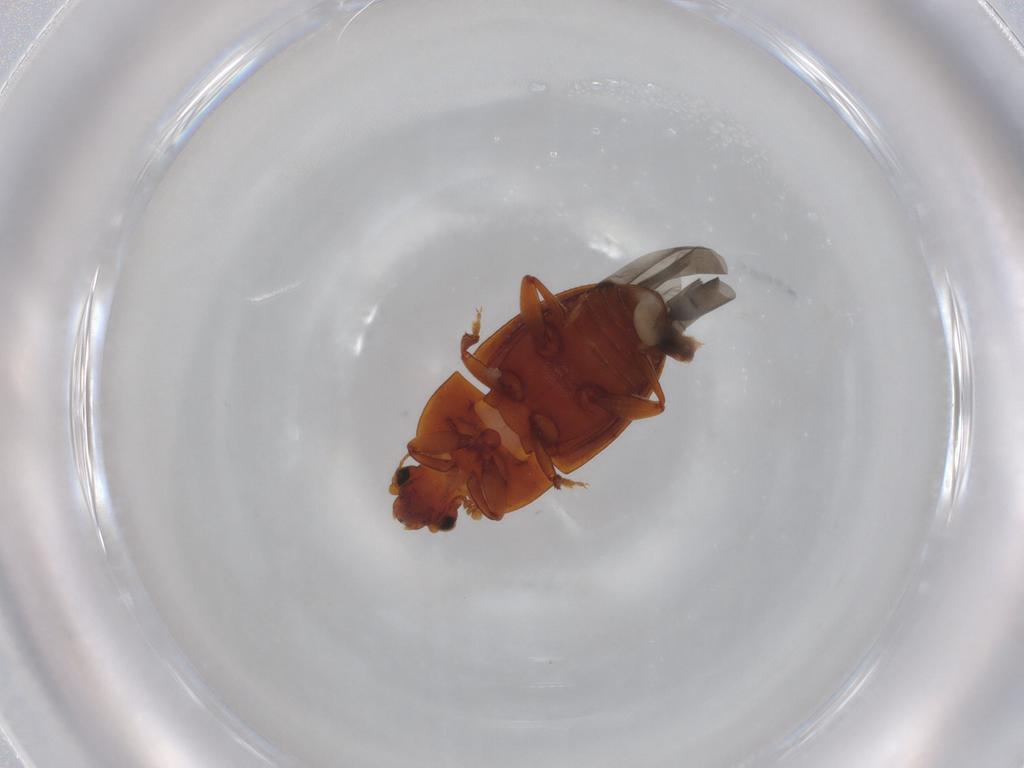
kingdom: Animalia
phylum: Arthropoda
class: Insecta
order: Coleoptera
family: Nitidulidae
